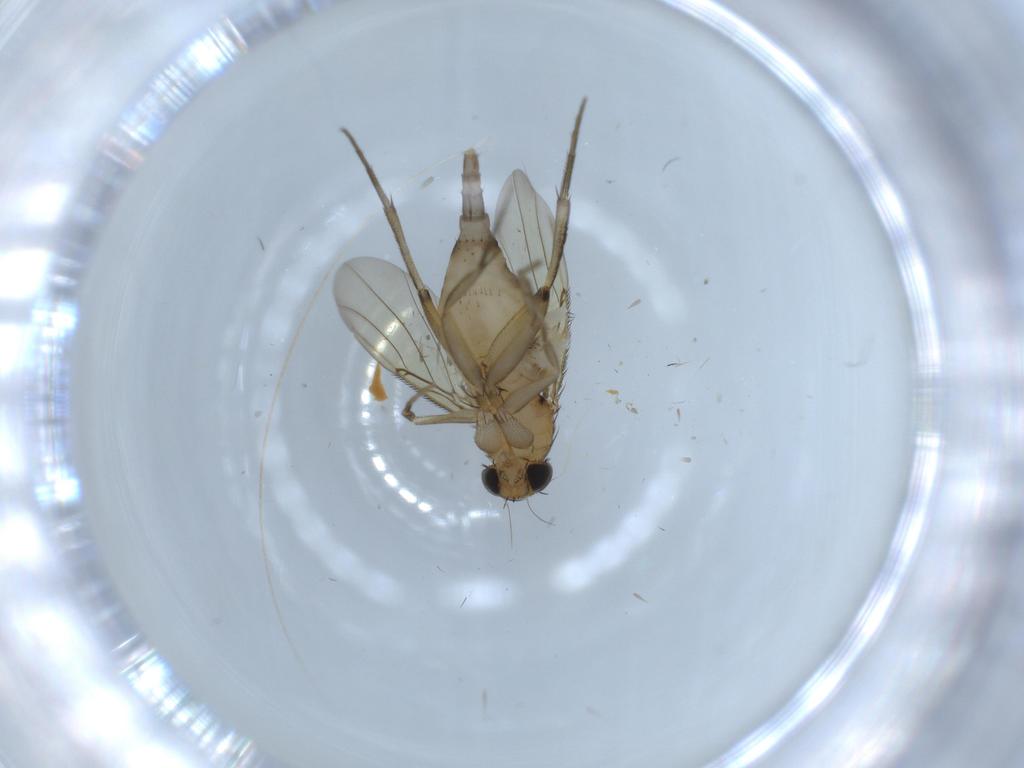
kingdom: Animalia
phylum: Arthropoda
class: Insecta
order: Diptera
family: Phoridae
